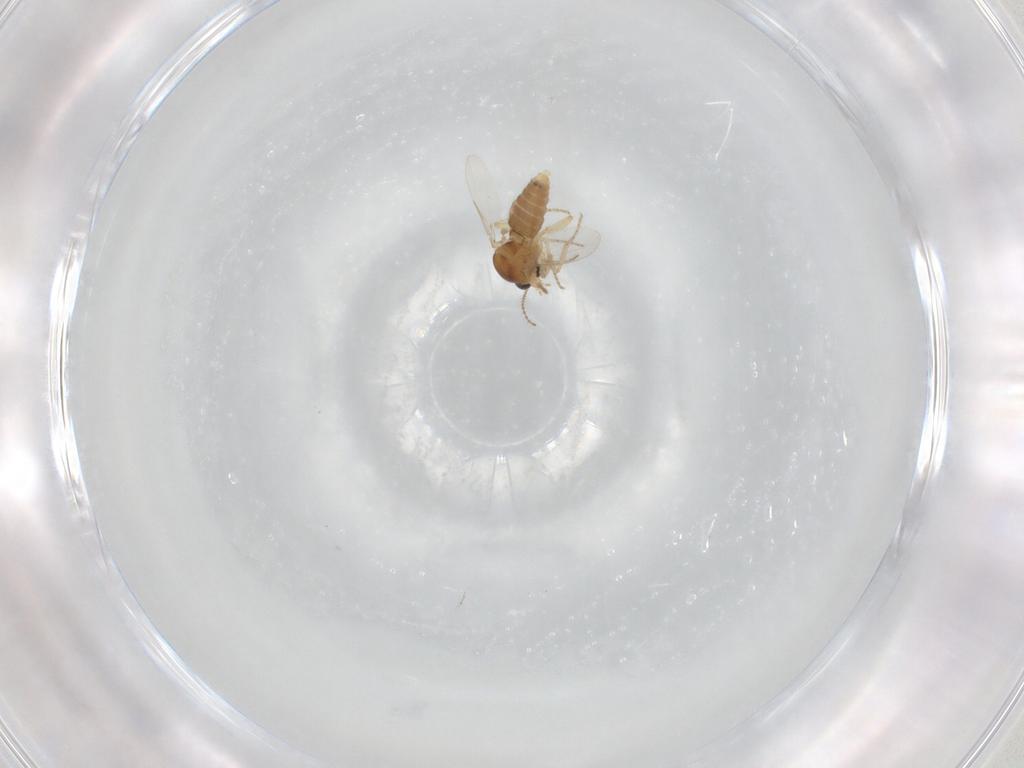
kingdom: Animalia
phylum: Arthropoda
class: Insecta
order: Diptera
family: Ceratopogonidae
